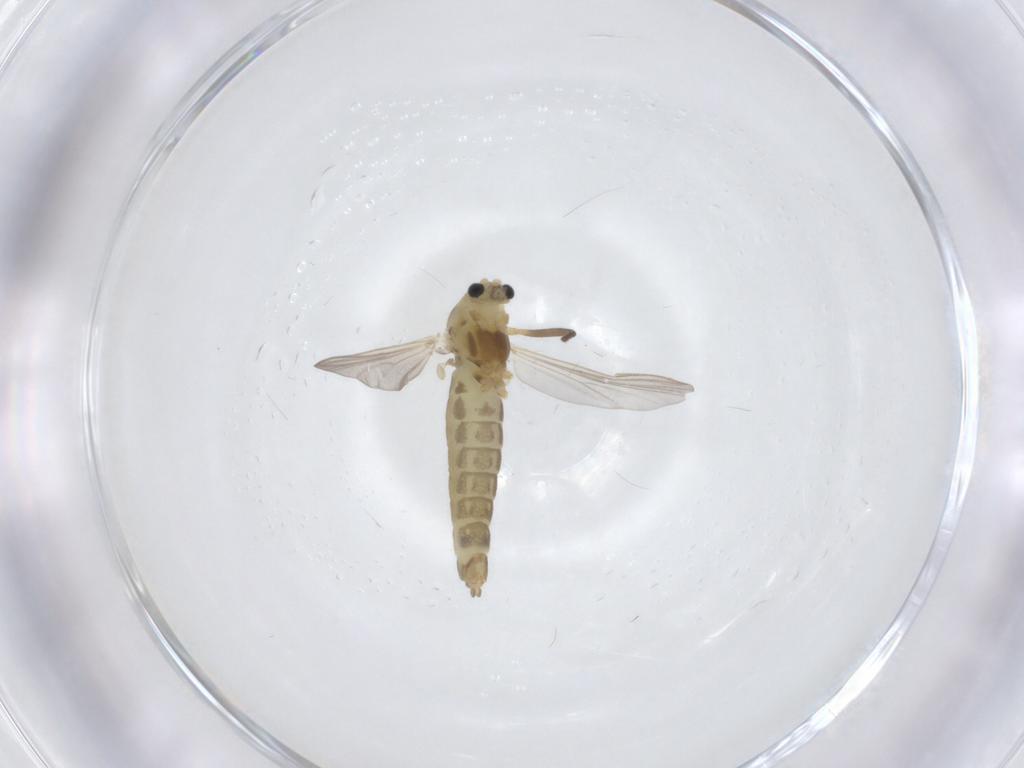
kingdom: Animalia
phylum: Arthropoda
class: Insecta
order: Diptera
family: Chironomidae
